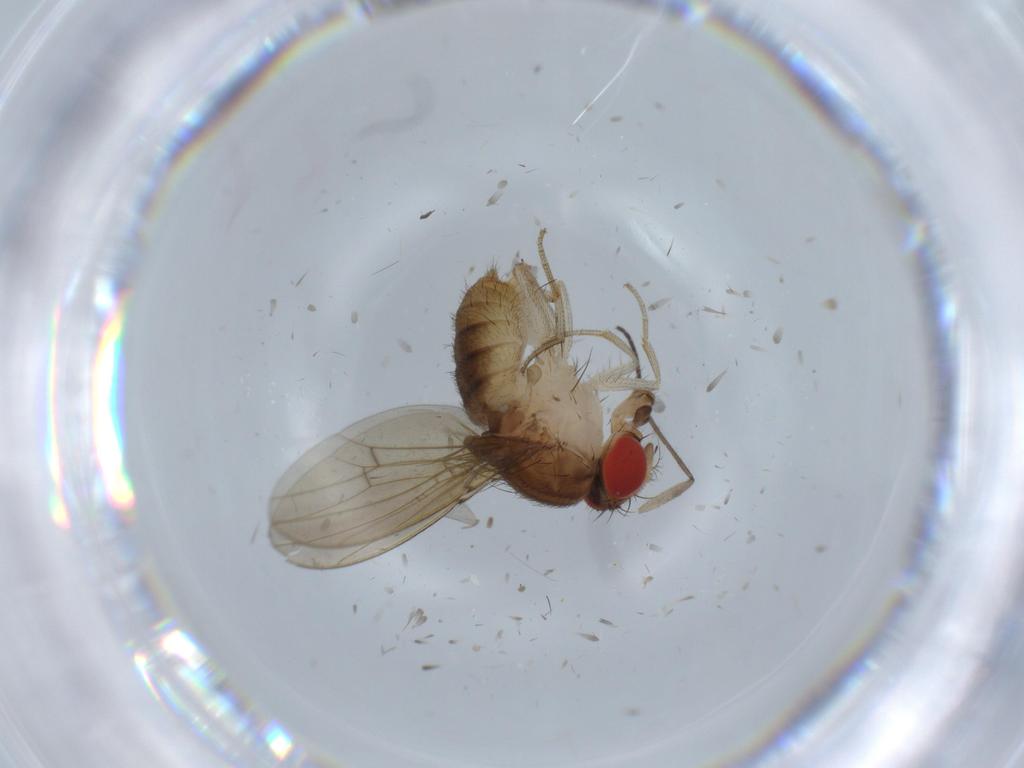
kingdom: Animalia
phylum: Arthropoda
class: Insecta
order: Diptera
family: Drosophilidae
